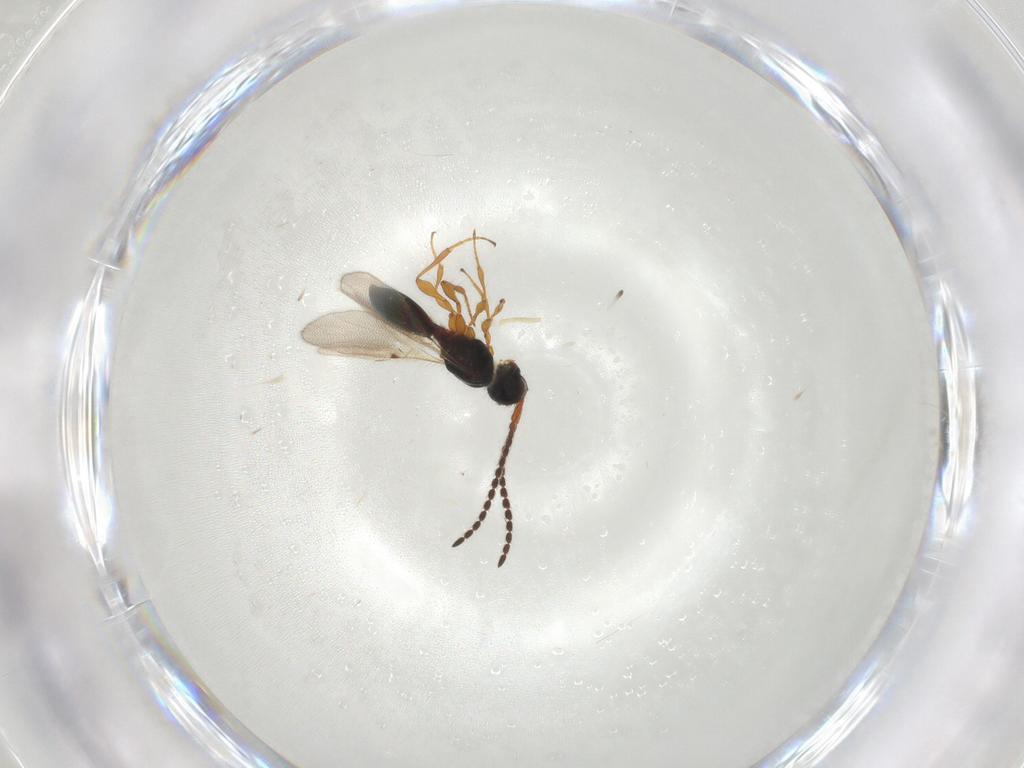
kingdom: Animalia
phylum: Arthropoda
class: Insecta
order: Hymenoptera
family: Diapriidae
